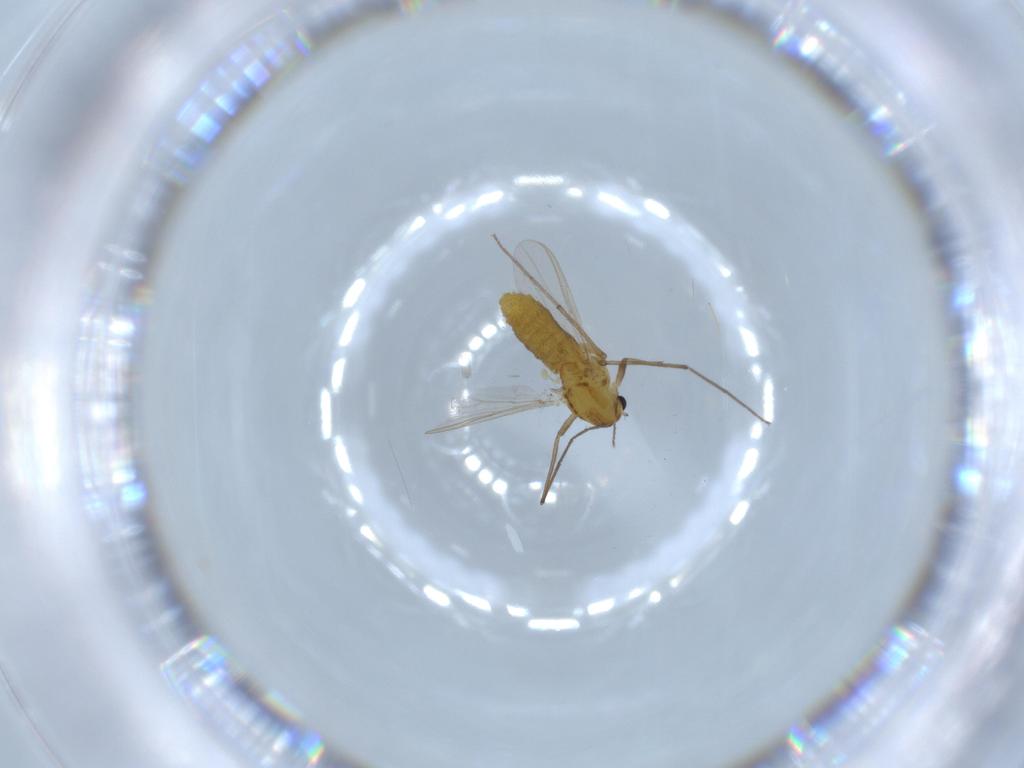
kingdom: Animalia
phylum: Arthropoda
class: Insecta
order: Diptera
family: Chironomidae
